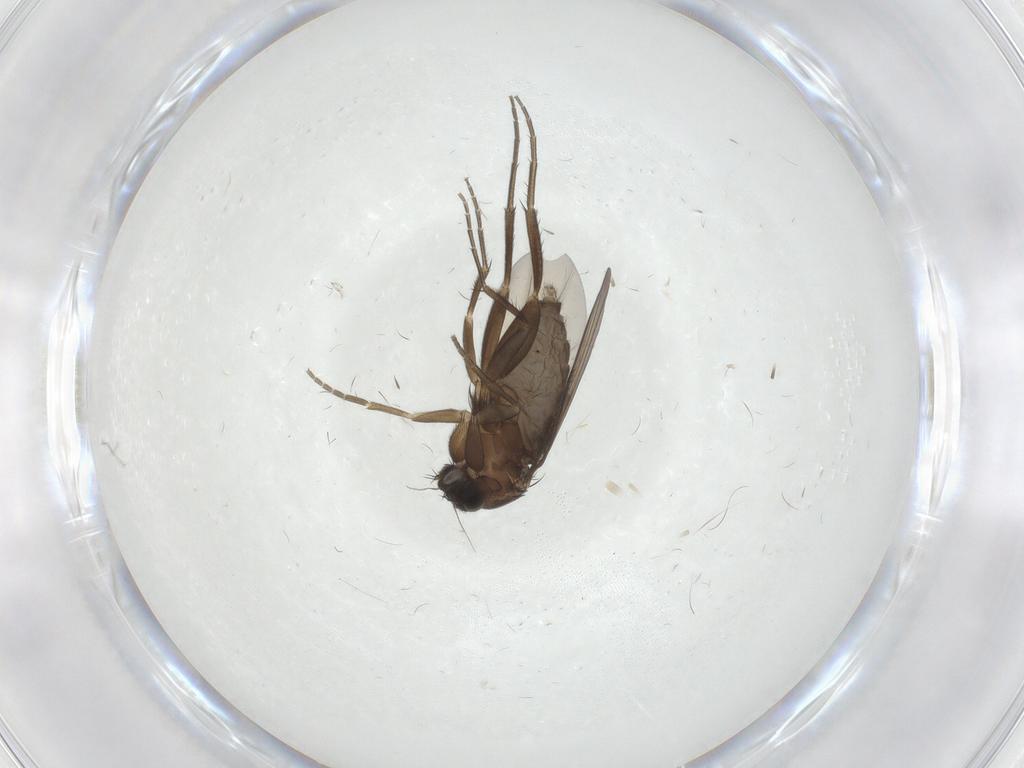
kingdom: Animalia
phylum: Arthropoda
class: Insecta
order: Diptera
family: Phoridae
